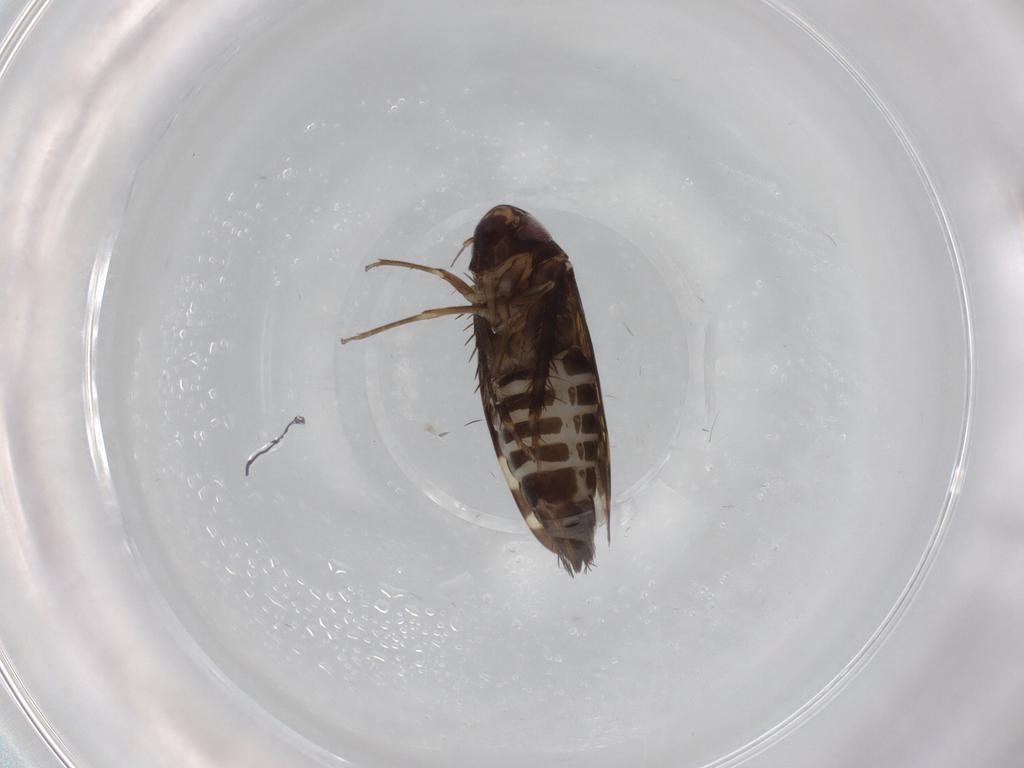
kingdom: Animalia
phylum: Arthropoda
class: Insecta
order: Hemiptera
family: Cicadellidae
